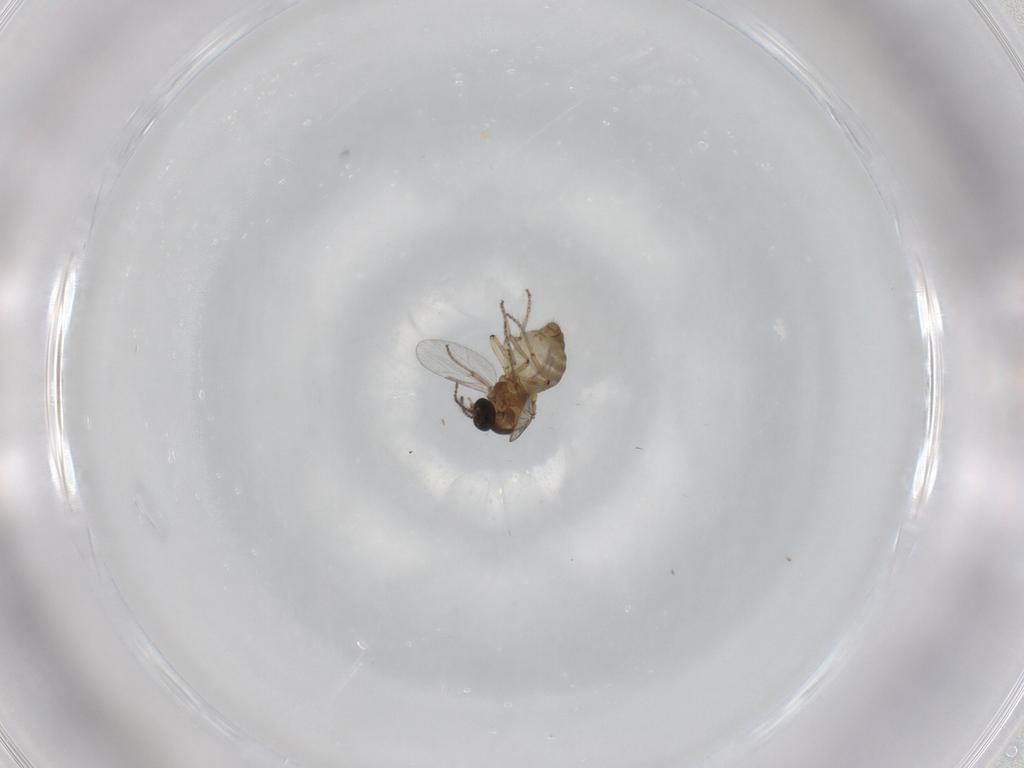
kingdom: Animalia
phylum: Arthropoda
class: Insecta
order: Diptera
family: Ceratopogonidae
